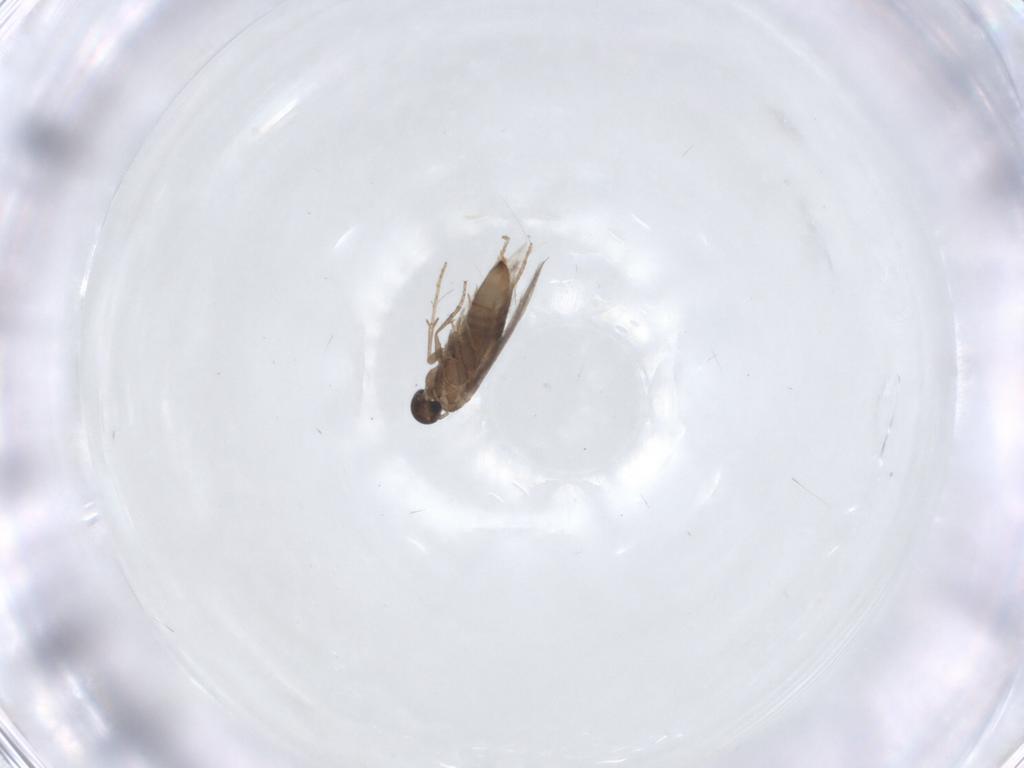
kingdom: Animalia
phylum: Arthropoda
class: Insecta
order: Lepidoptera
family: Heliozelidae
